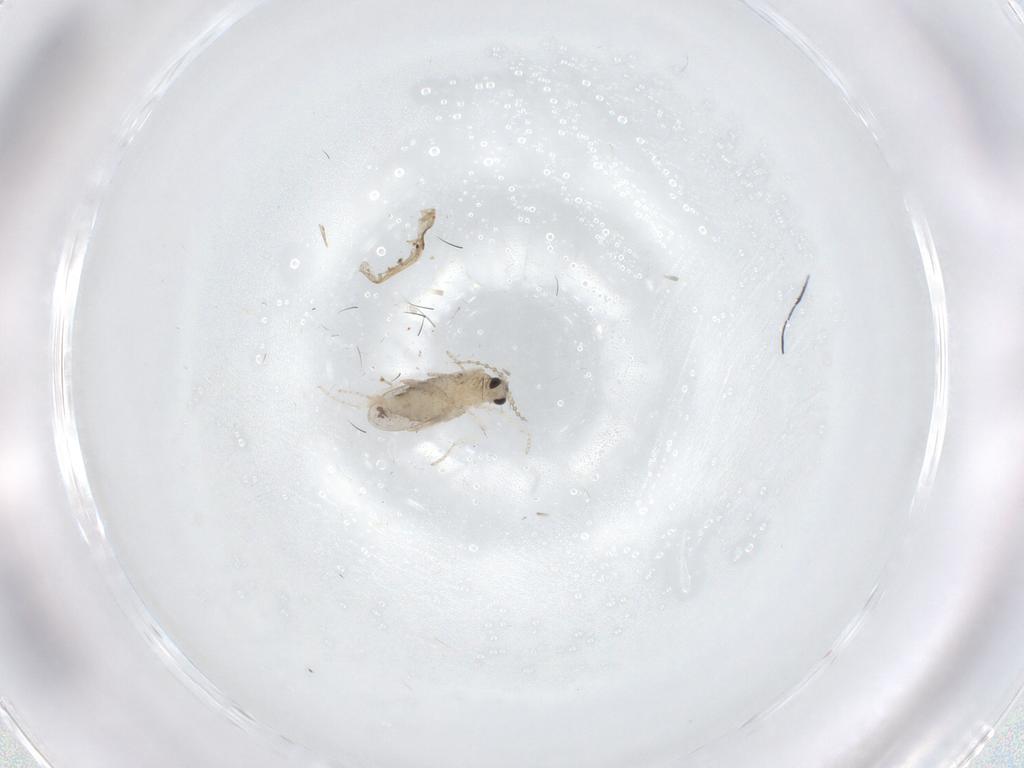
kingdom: Animalia
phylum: Arthropoda
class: Insecta
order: Diptera
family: Cecidomyiidae
